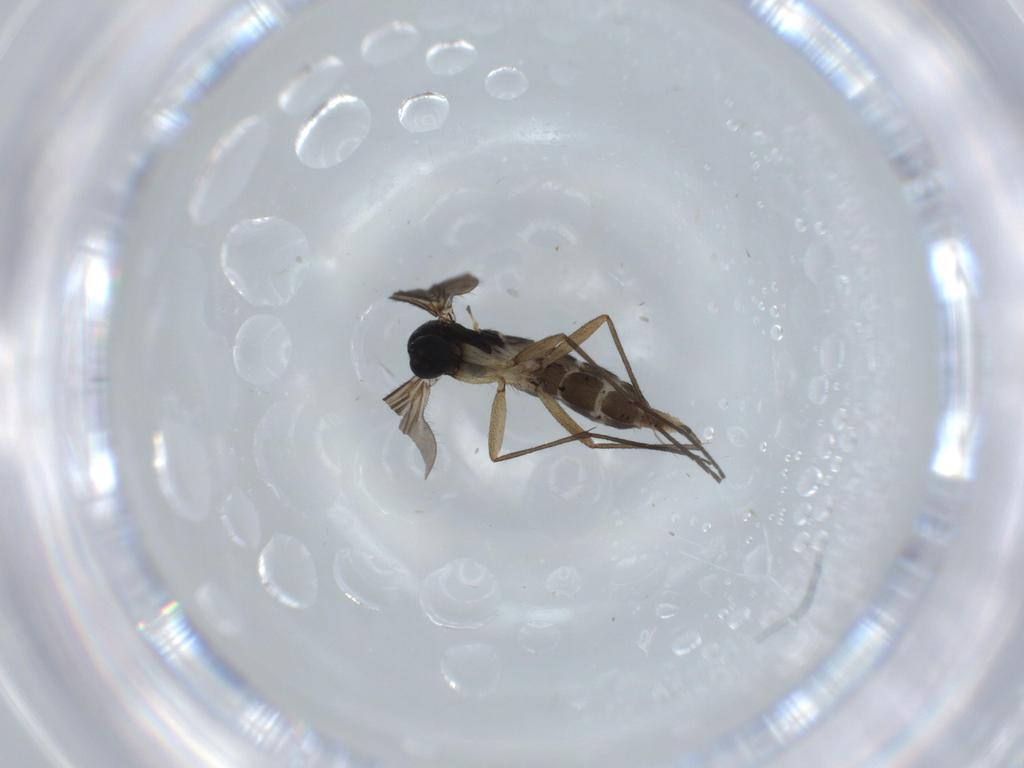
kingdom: Animalia
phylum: Arthropoda
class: Insecta
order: Diptera
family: Sciaridae
